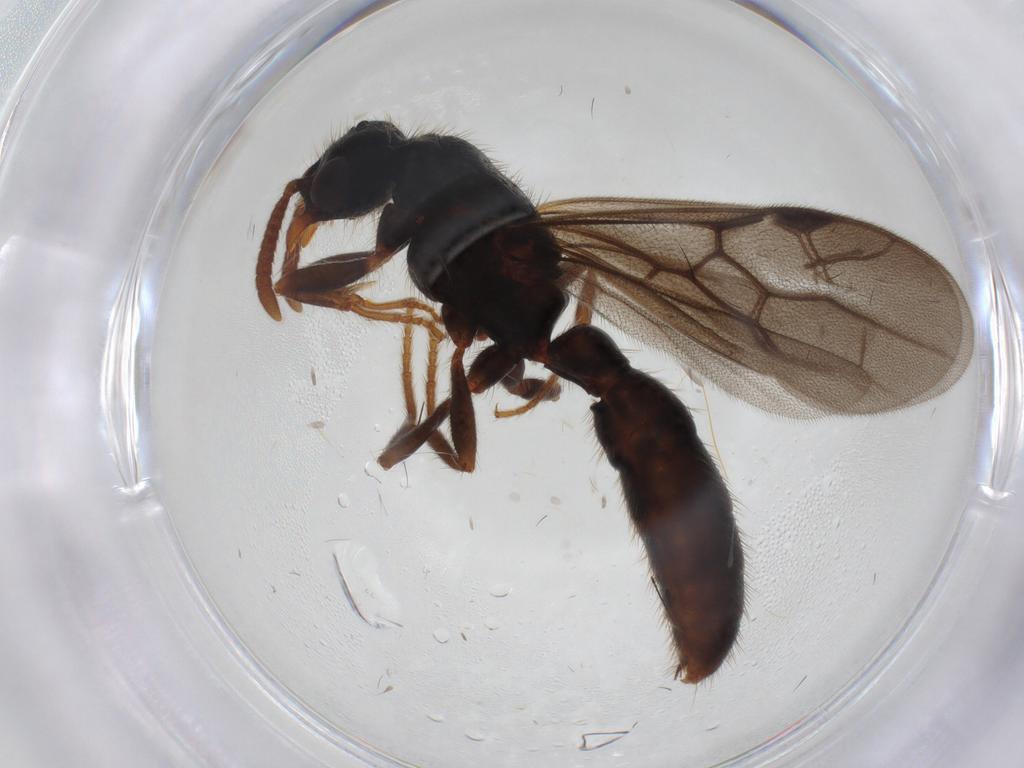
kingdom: Animalia
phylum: Arthropoda
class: Insecta
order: Hymenoptera
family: Formicidae
